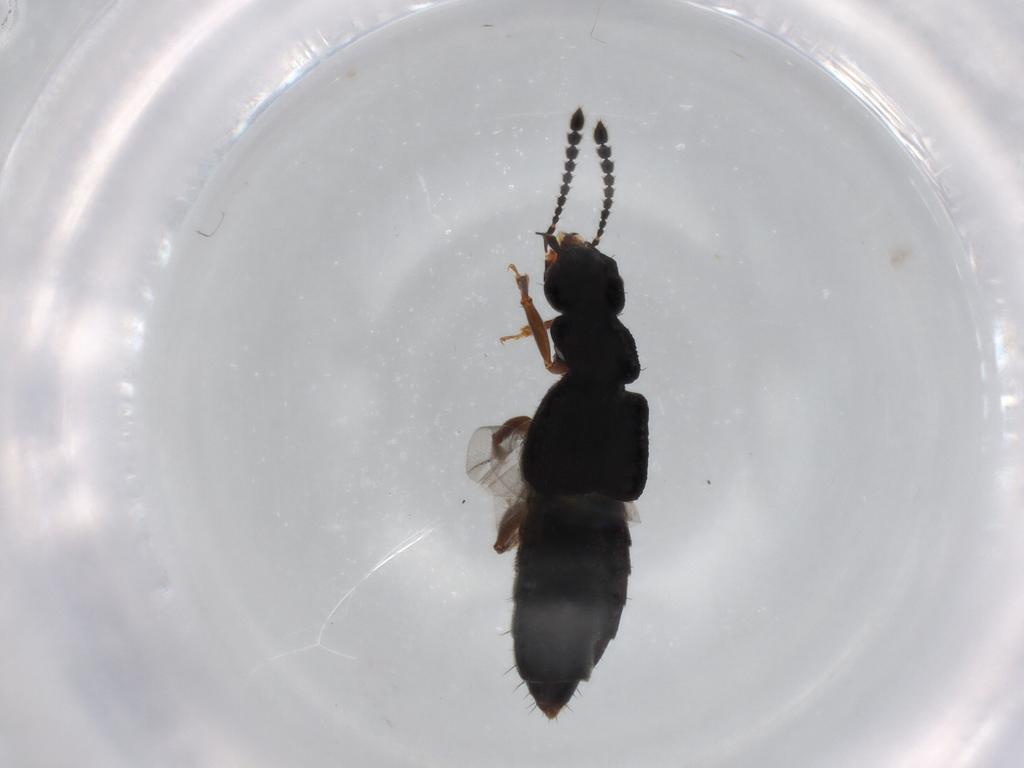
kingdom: Animalia
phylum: Arthropoda
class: Insecta
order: Coleoptera
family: Staphylinidae
